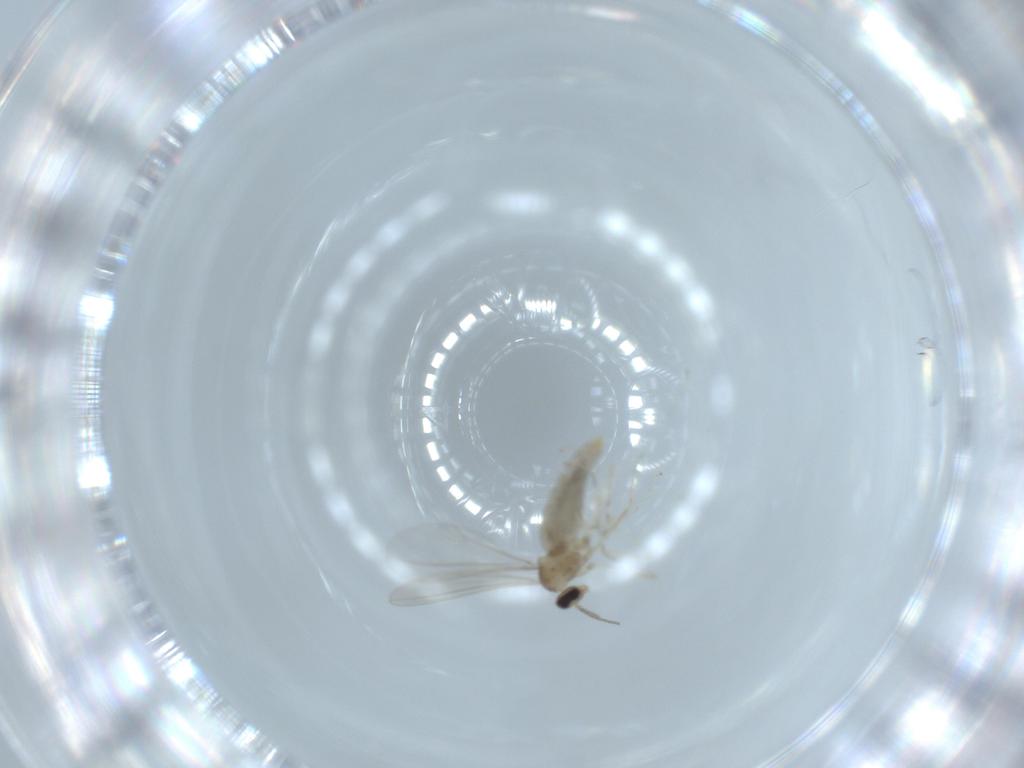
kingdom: Animalia
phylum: Arthropoda
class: Insecta
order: Diptera
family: Cecidomyiidae
